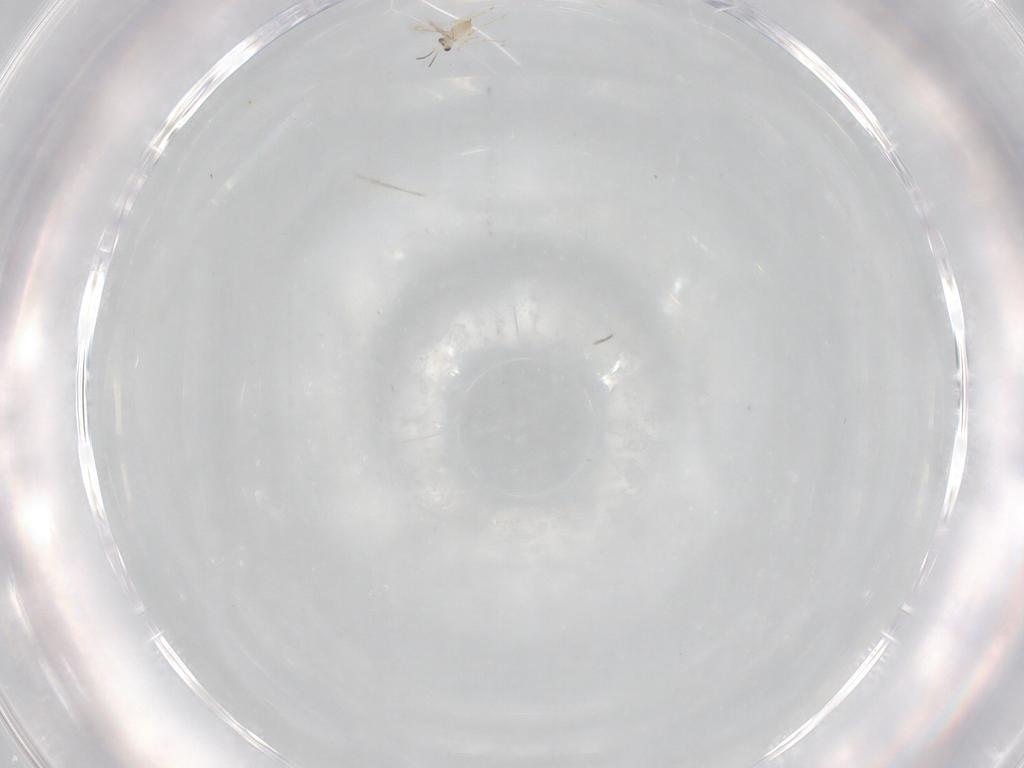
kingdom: Animalia
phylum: Arthropoda
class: Insecta
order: Hymenoptera
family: Mymaridae
